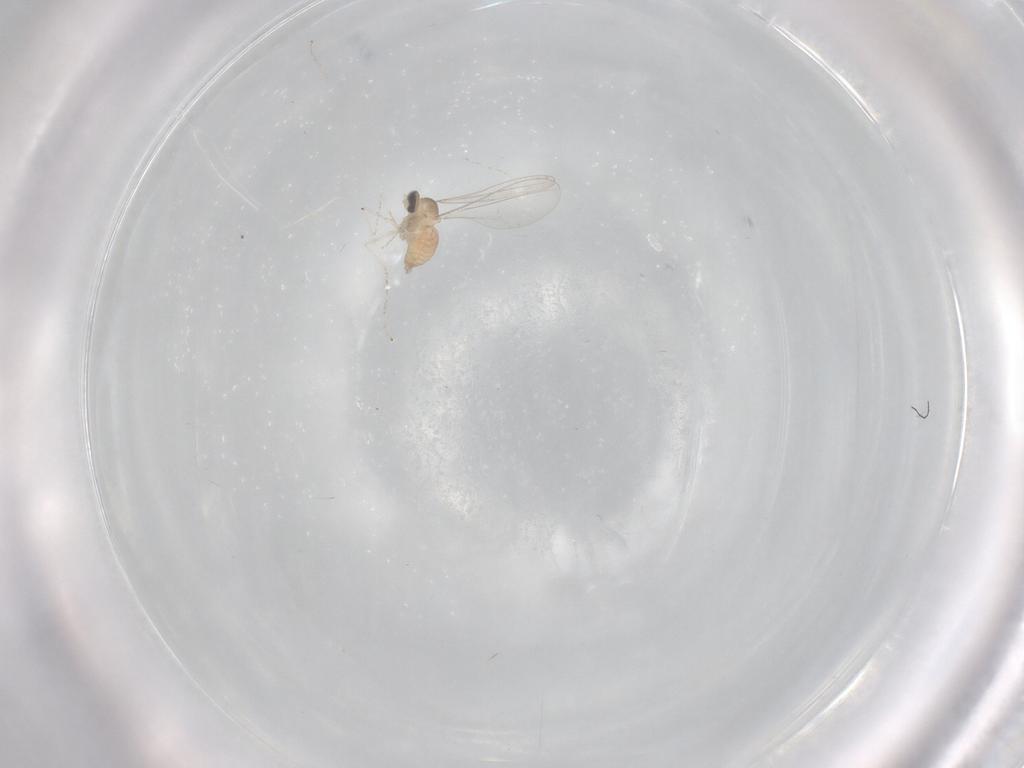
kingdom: Animalia
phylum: Arthropoda
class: Insecta
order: Diptera
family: Cecidomyiidae
